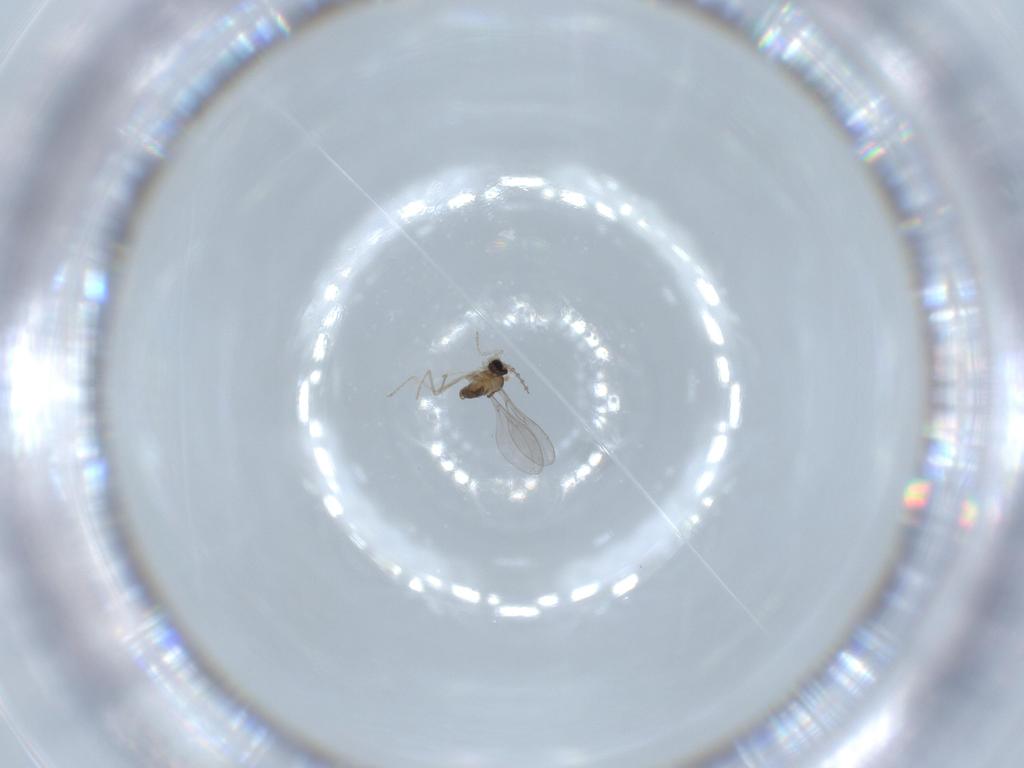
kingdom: Animalia
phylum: Arthropoda
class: Insecta
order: Diptera
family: Cecidomyiidae
